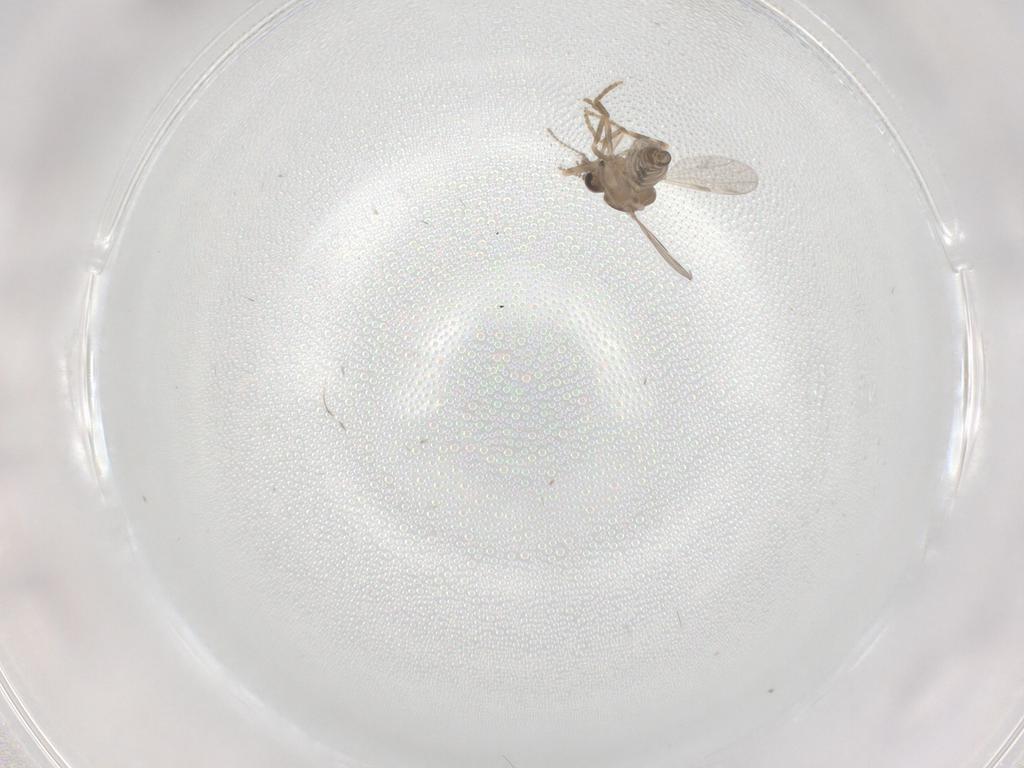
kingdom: Animalia
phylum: Arthropoda
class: Insecta
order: Diptera
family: Ceratopogonidae
